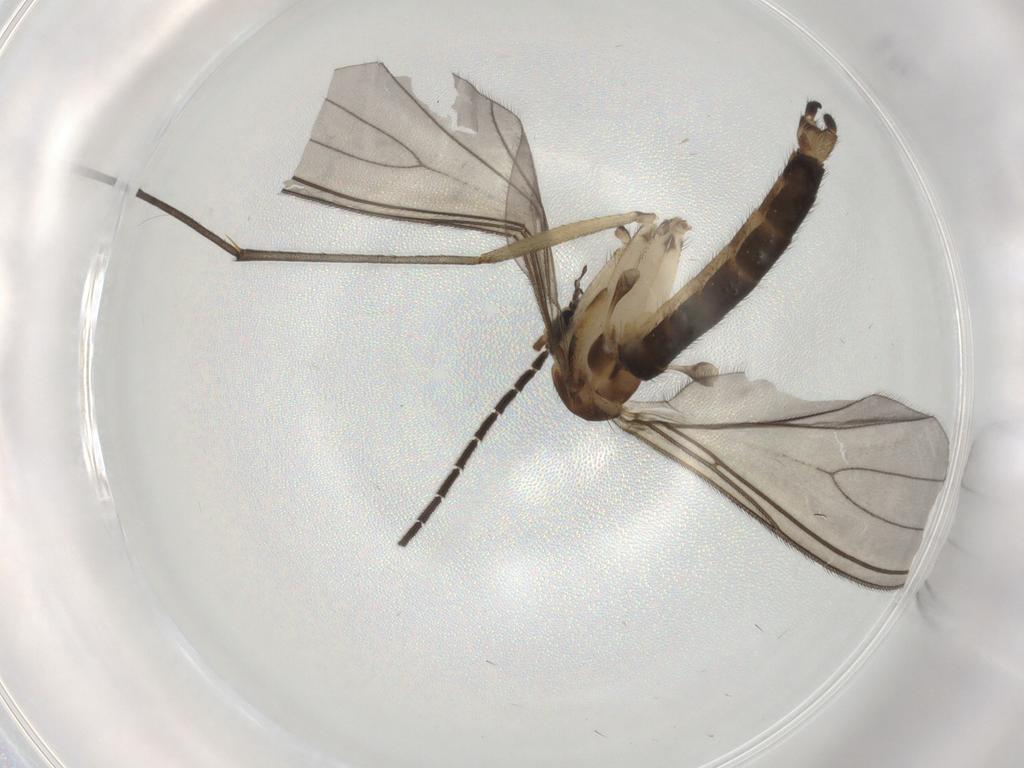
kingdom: Animalia
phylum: Arthropoda
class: Insecta
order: Diptera
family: Sciaridae
